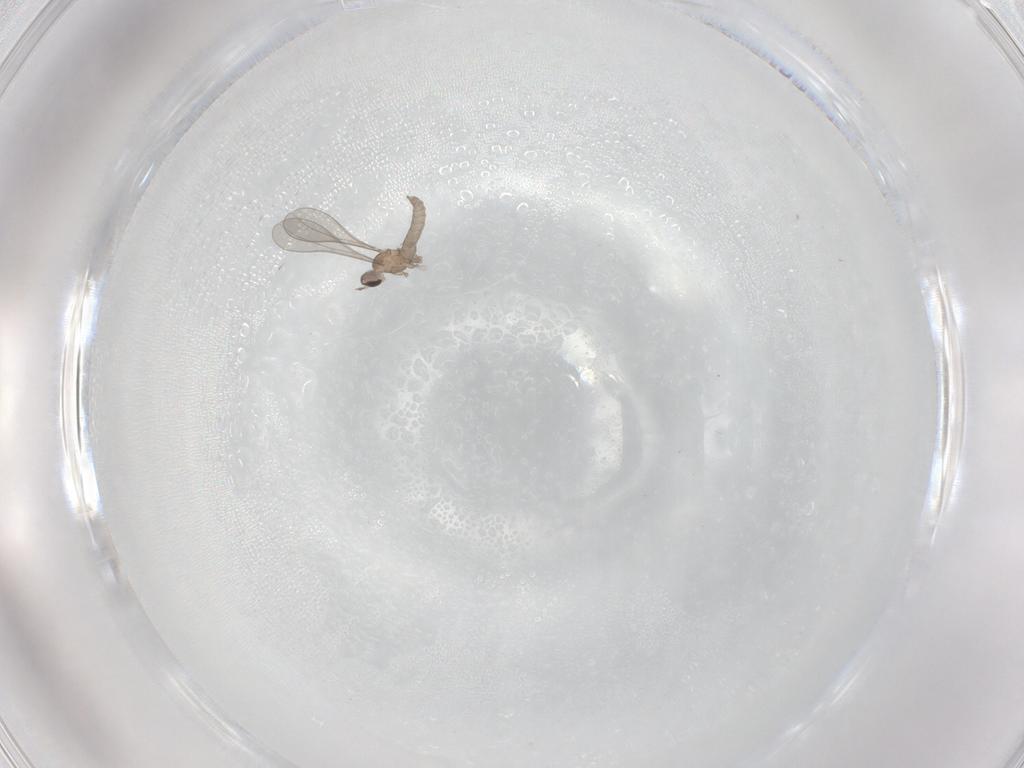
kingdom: Animalia
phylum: Arthropoda
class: Insecta
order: Diptera
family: Cecidomyiidae
